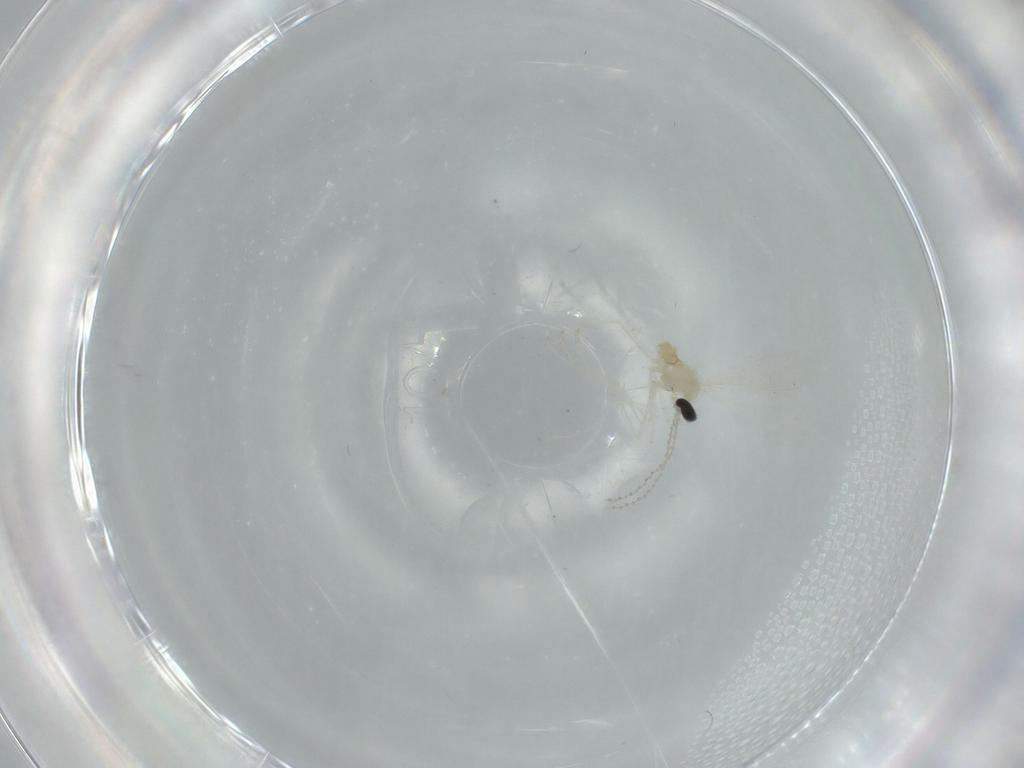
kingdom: Animalia
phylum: Arthropoda
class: Insecta
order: Diptera
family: Cecidomyiidae
